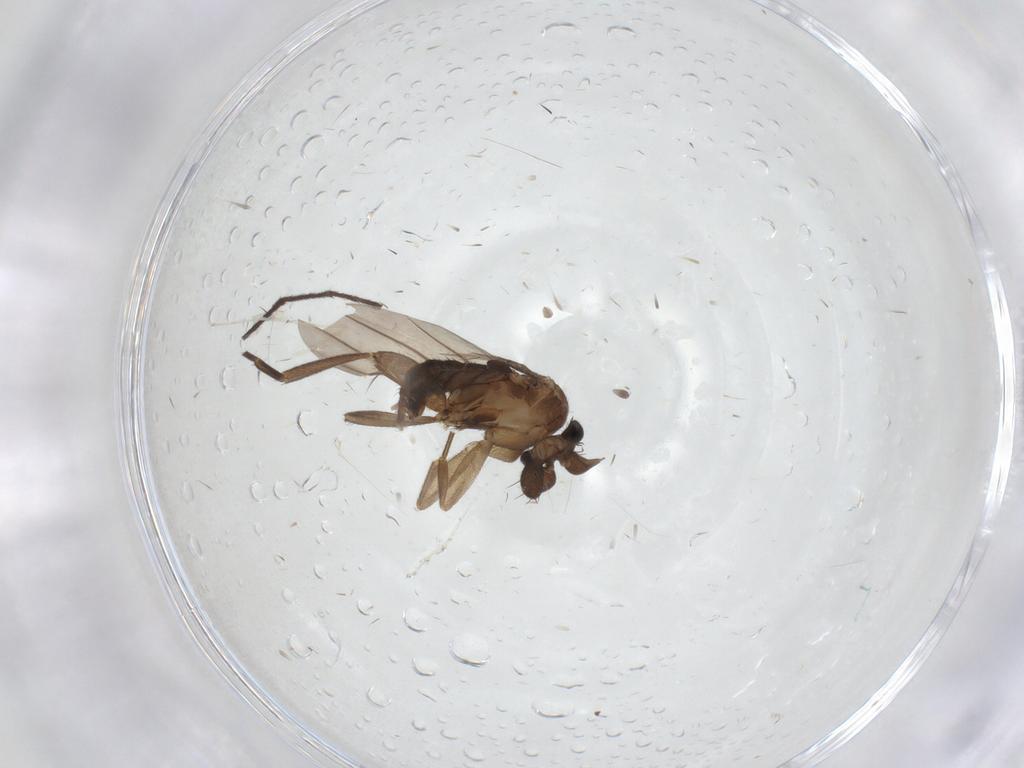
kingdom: Animalia
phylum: Arthropoda
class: Insecta
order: Diptera
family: Phoridae
